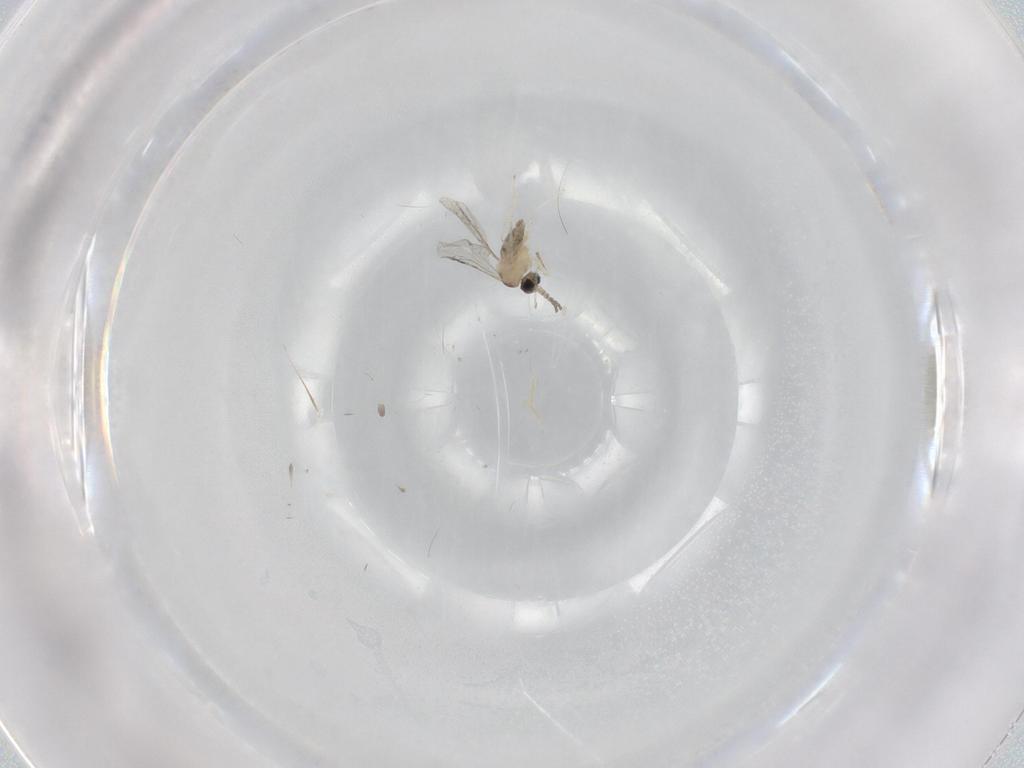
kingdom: Animalia
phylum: Arthropoda
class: Insecta
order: Diptera
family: Cecidomyiidae
